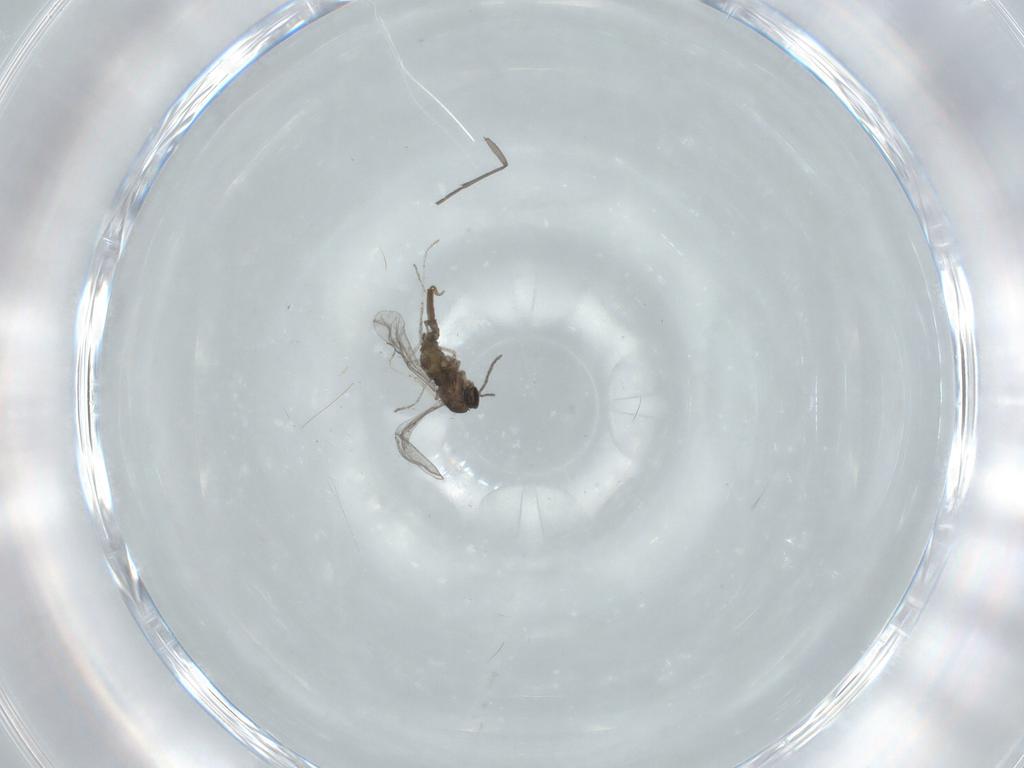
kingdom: Animalia
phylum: Arthropoda
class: Insecta
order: Diptera
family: Cecidomyiidae
